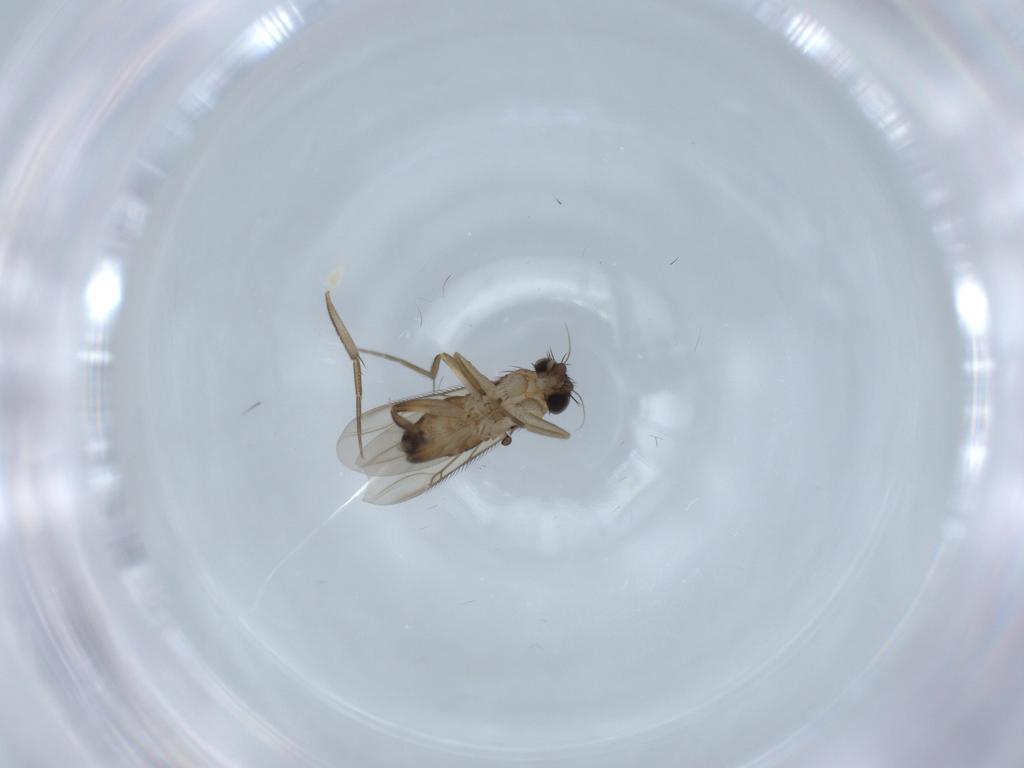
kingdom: Animalia
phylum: Arthropoda
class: Insecta
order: Diptera
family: Phoridae
